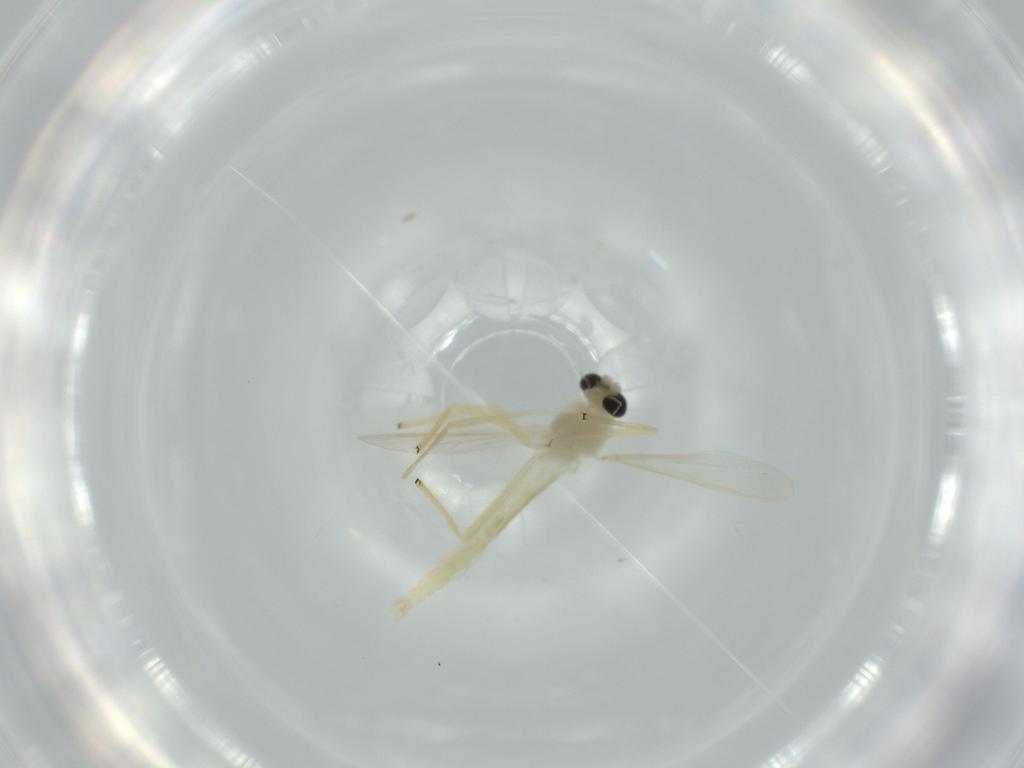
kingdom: Animalia
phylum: Arthropoda
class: Insecta
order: Diptera
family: Chironomidae
